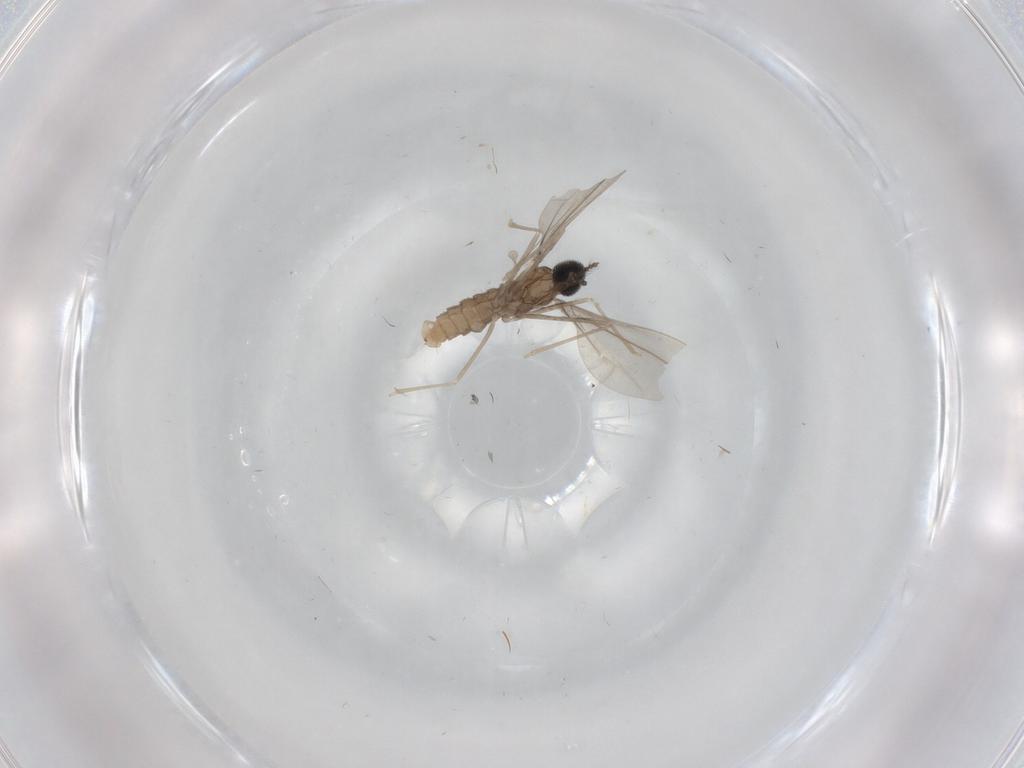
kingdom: Animalia
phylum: Arthropoda
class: Insecta
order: Diptera
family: Cecidomyiidae
